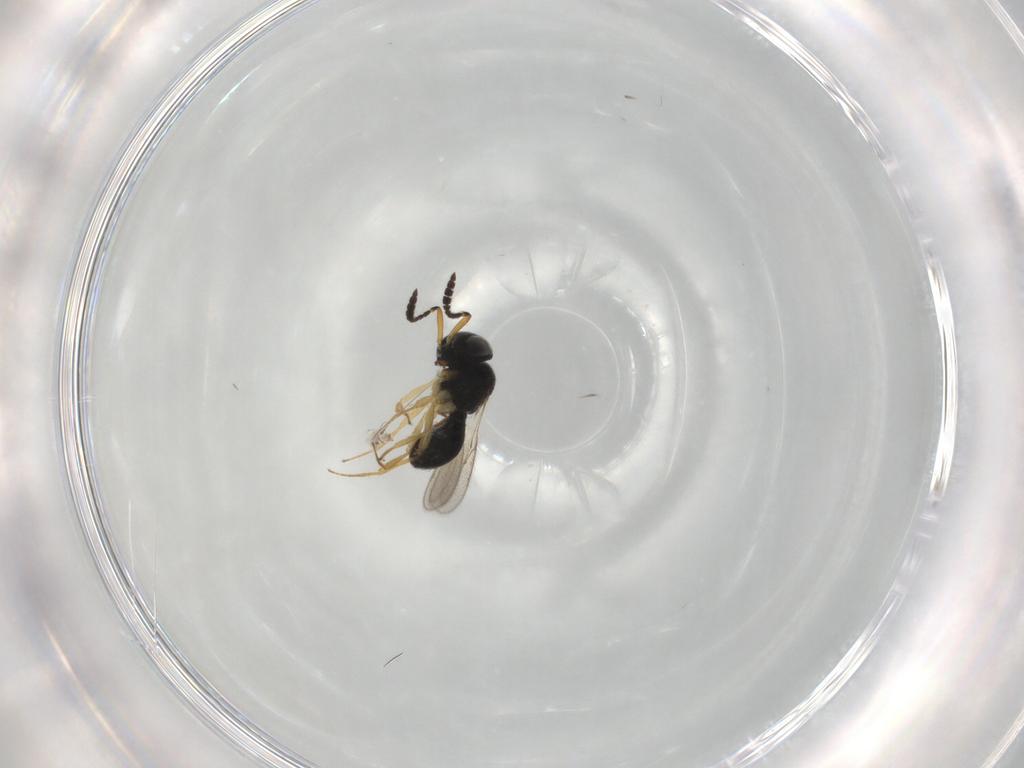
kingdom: Animalia
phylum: Arthropoda
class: Insecta
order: Hymenoptera
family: Scelionidae
